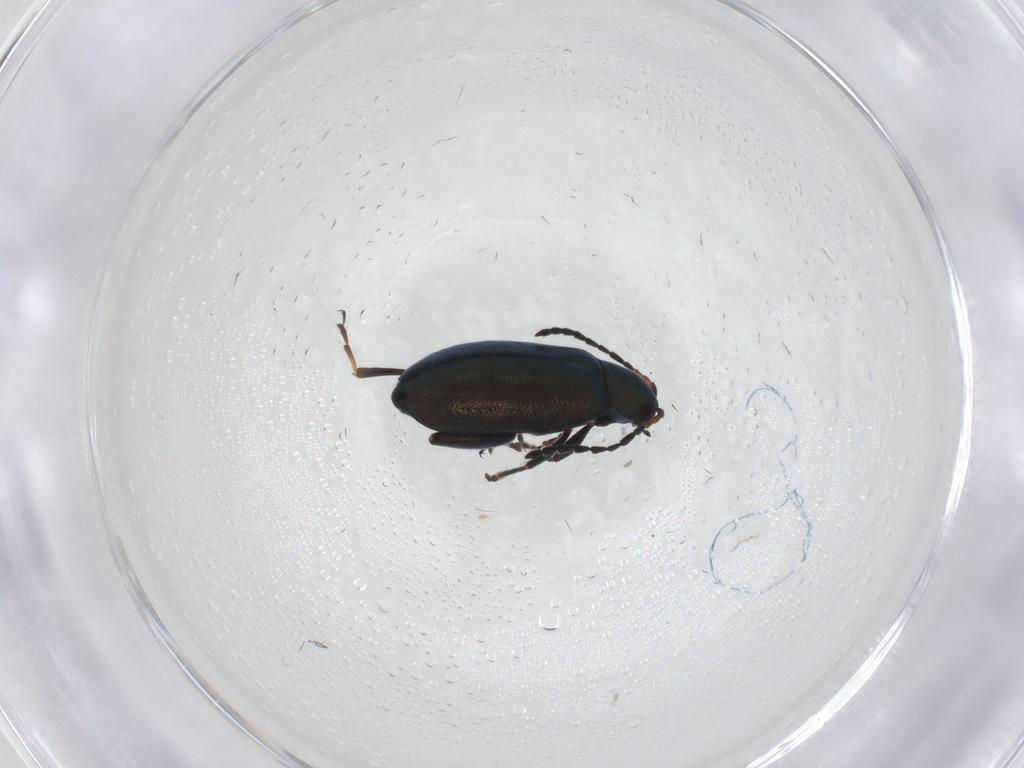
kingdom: Animalia
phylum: Arthropoda
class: Insecta
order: Coleoptera
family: Chrysomelidae
